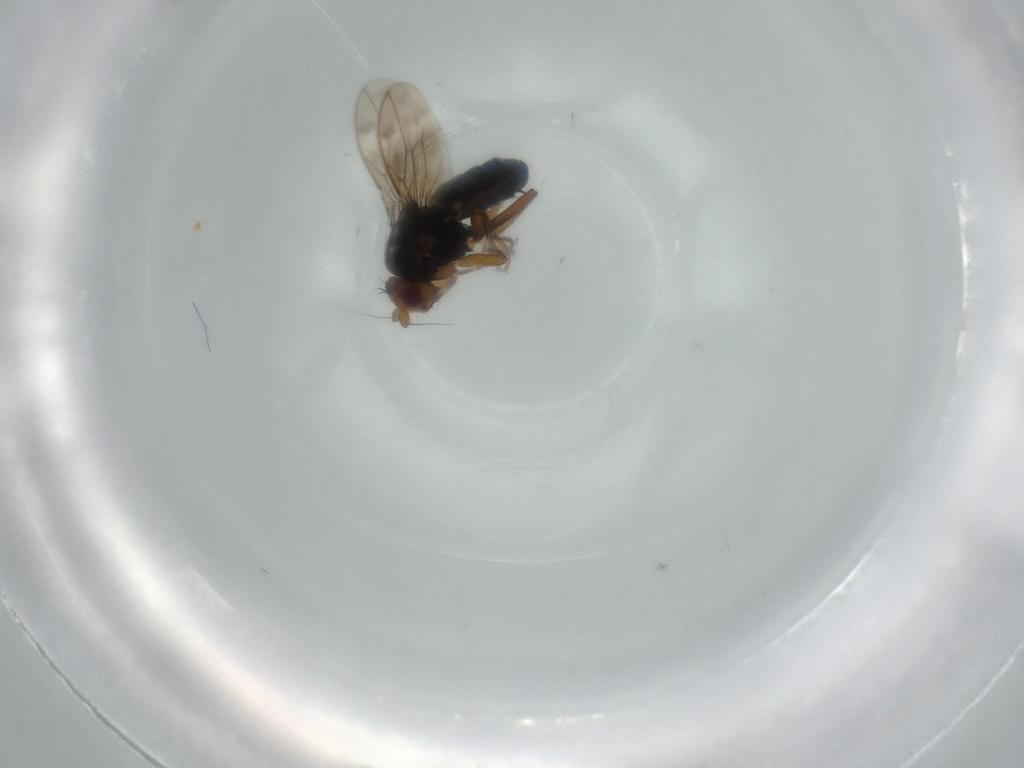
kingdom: Animalia
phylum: Arthropoda
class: Insecta
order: Diptera
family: Sphaeroceridae
